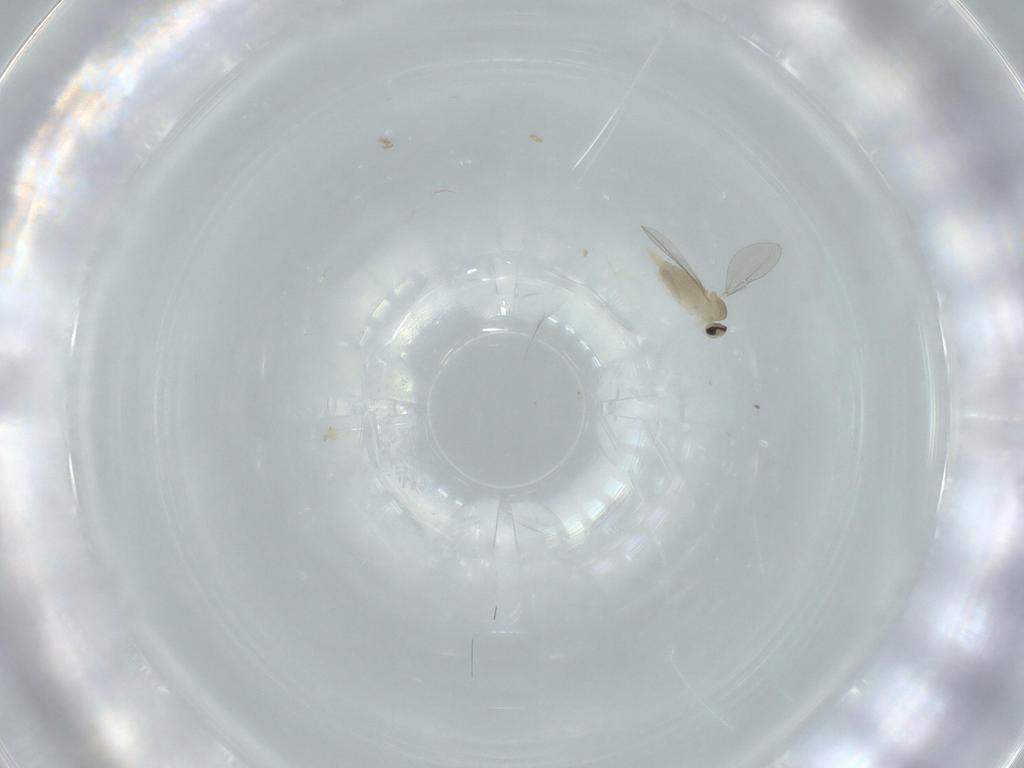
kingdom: Animalia
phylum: Arthropoda
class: Insecta
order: Diptera
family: Cecidomyiidae
